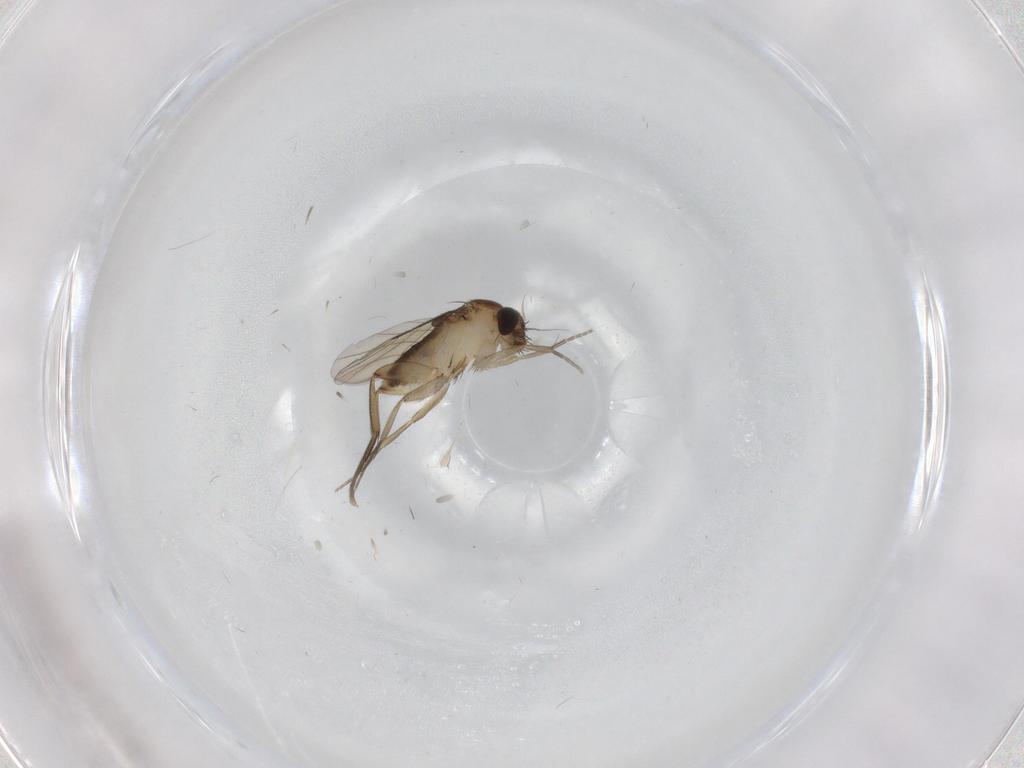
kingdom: Animalia
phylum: Arthropoda
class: Insecta
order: Diptera
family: Phoridae
